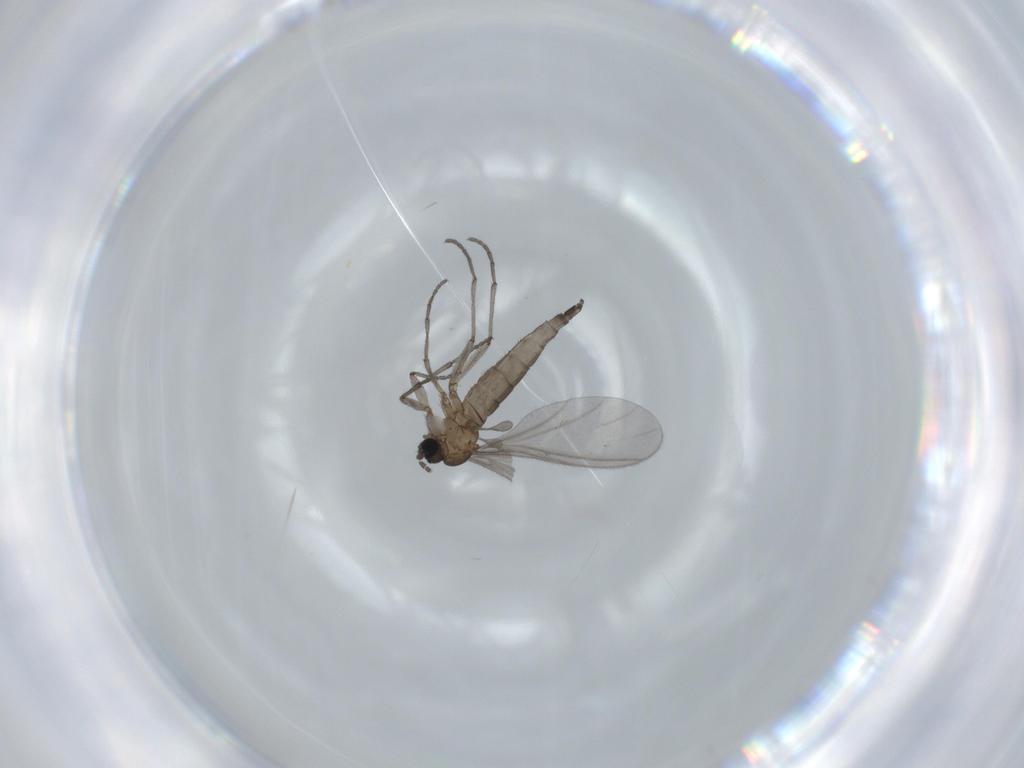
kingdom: Animalia
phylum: Arthropoda
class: Insecta
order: Diptera
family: Sciaridae
